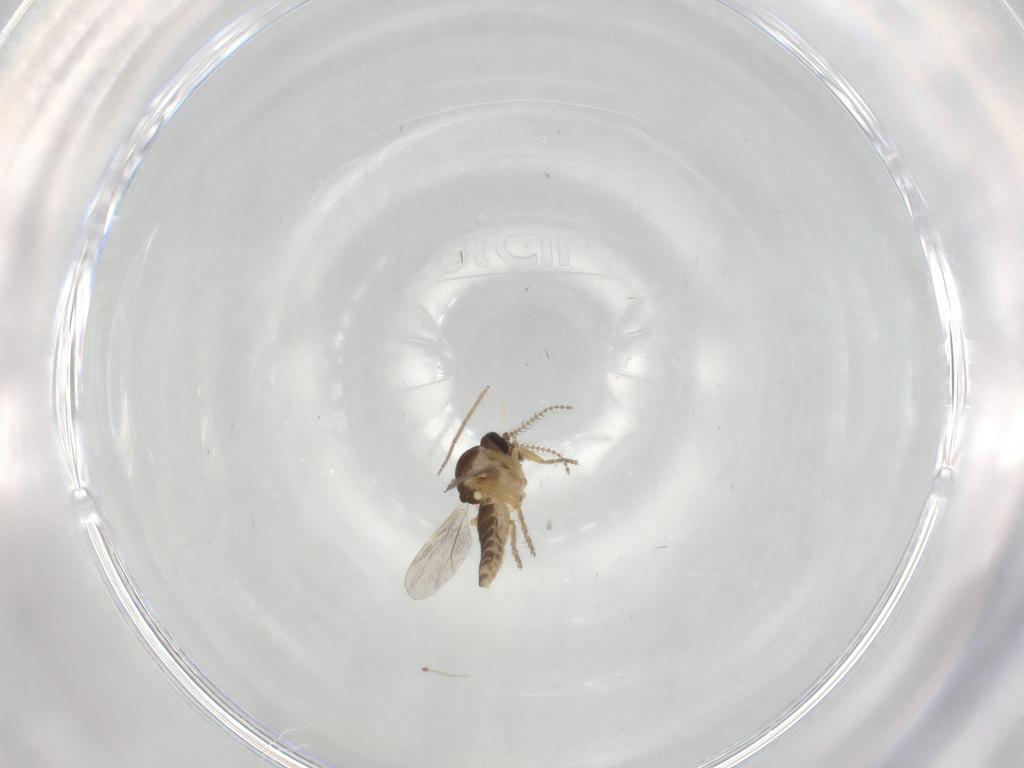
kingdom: Animalia
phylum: Arthropoda
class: Insecta
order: Diptera
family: Ceratopogonidae
